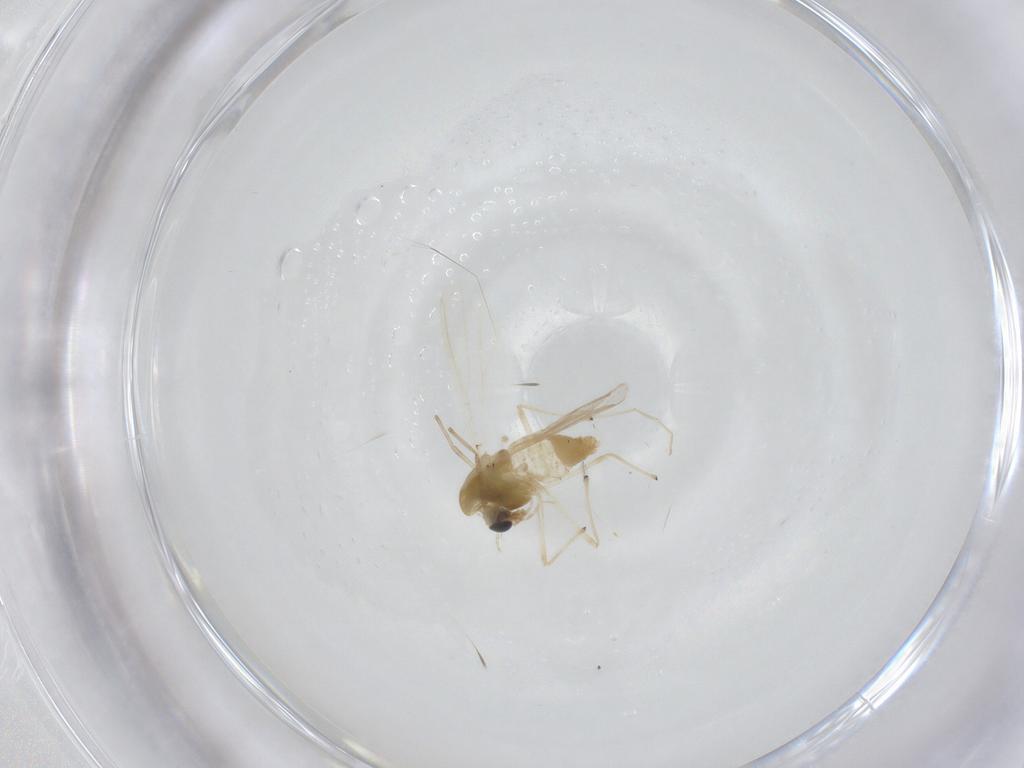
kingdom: Animalia
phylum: Arthropoda
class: Insecta
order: Diptera
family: Chironomidae
